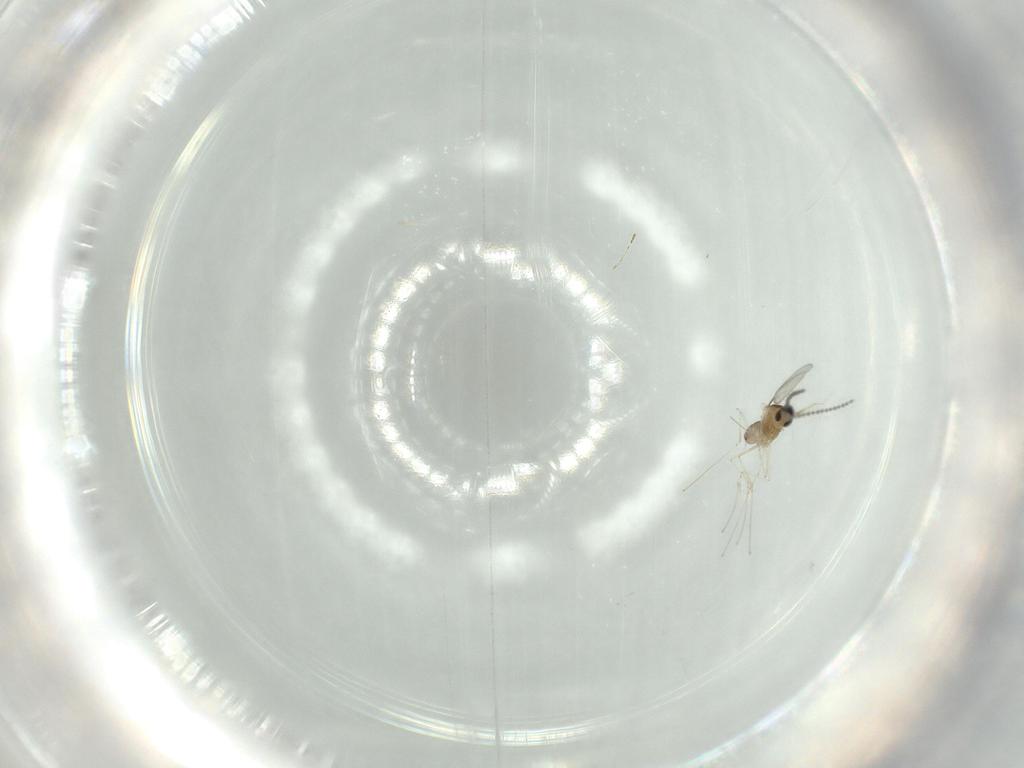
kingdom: Animalia
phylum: Arthropoda
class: Insecta
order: Diptera
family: Cecidomyiidae
